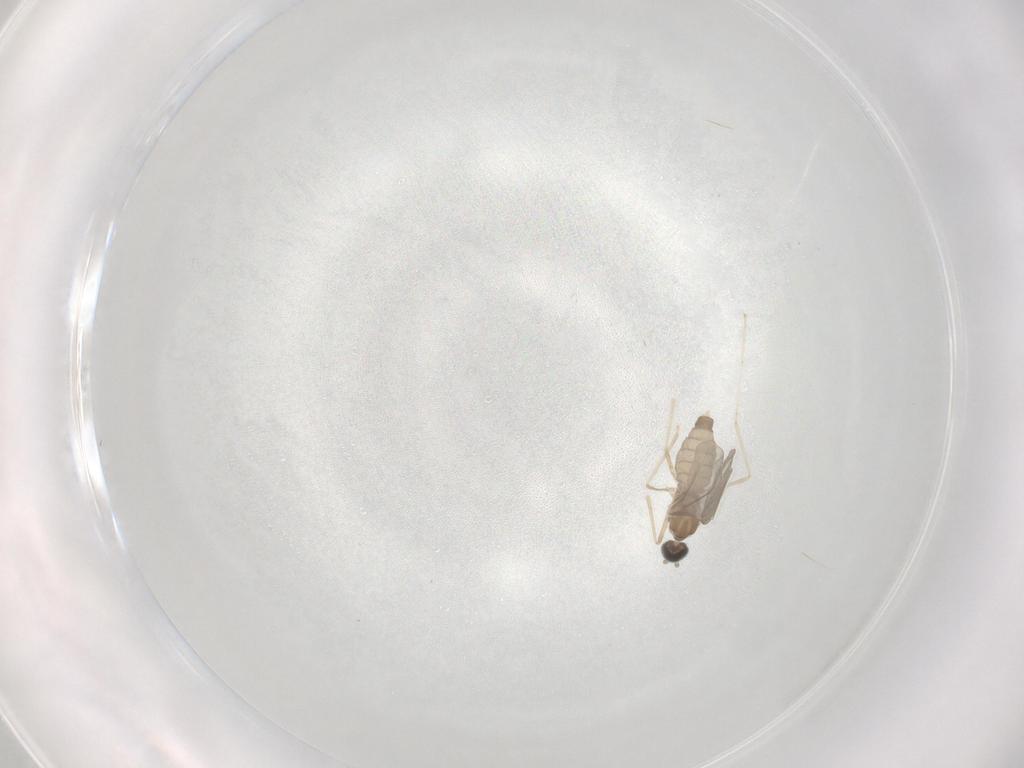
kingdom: Animalia
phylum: Arthropoda
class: Insecta
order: Diptera
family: Cecidomyiidae
